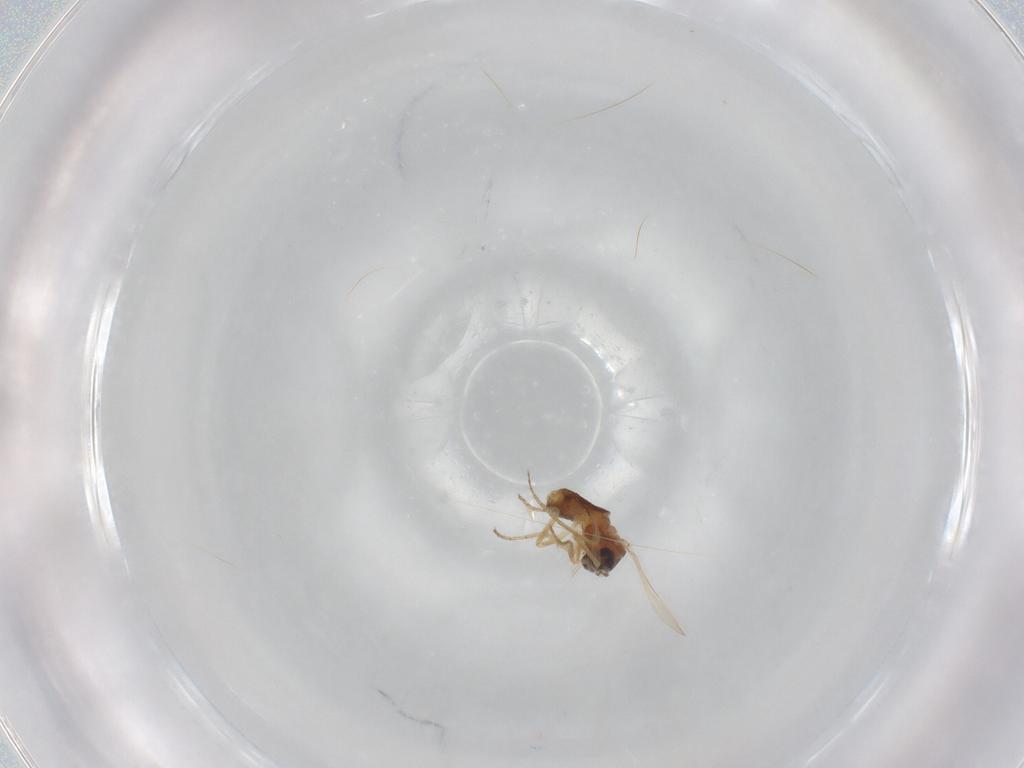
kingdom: Animalia
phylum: Arthropoda
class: Insecta
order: Diptera
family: Ceratopogonidae
